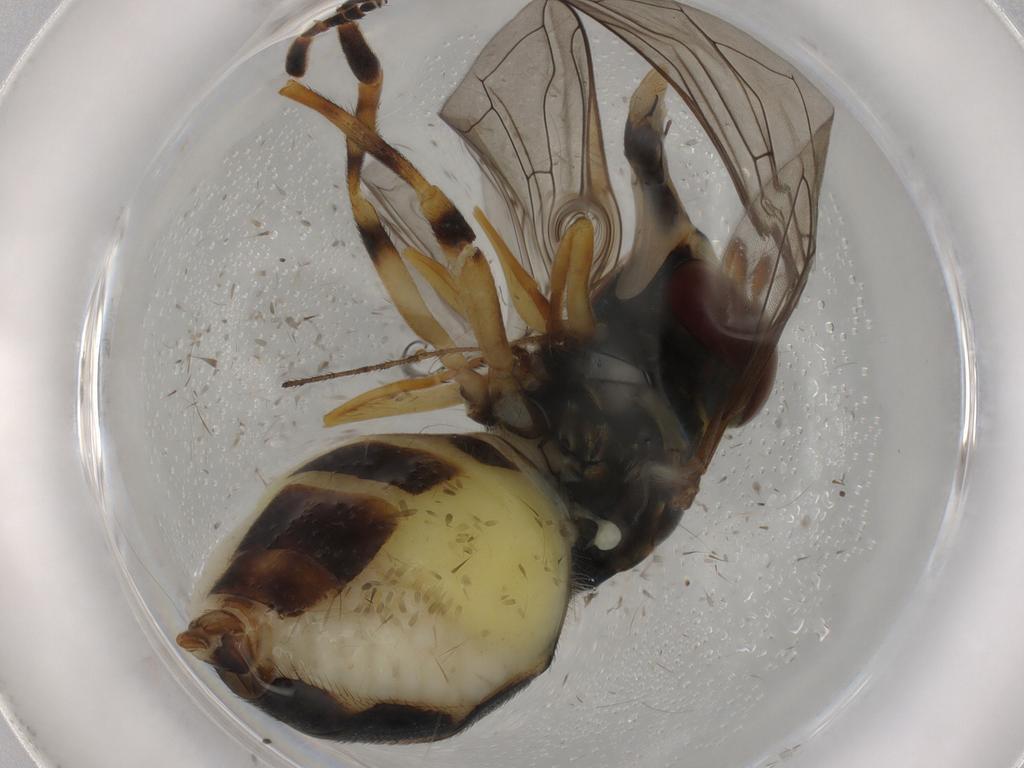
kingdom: Animalia
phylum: Arthropoda
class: Insecta
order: Diptera
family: Syrphidae
